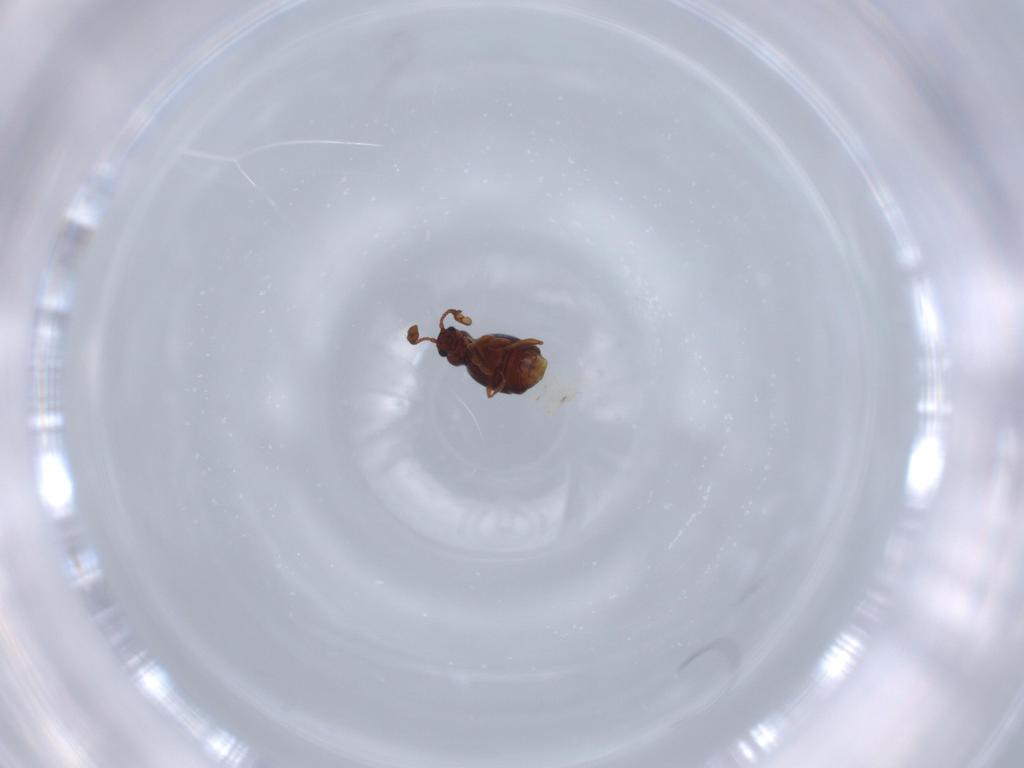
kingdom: Animalia
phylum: Arthropoda
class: Insecta
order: Coleoptera
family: Staphylinidae
